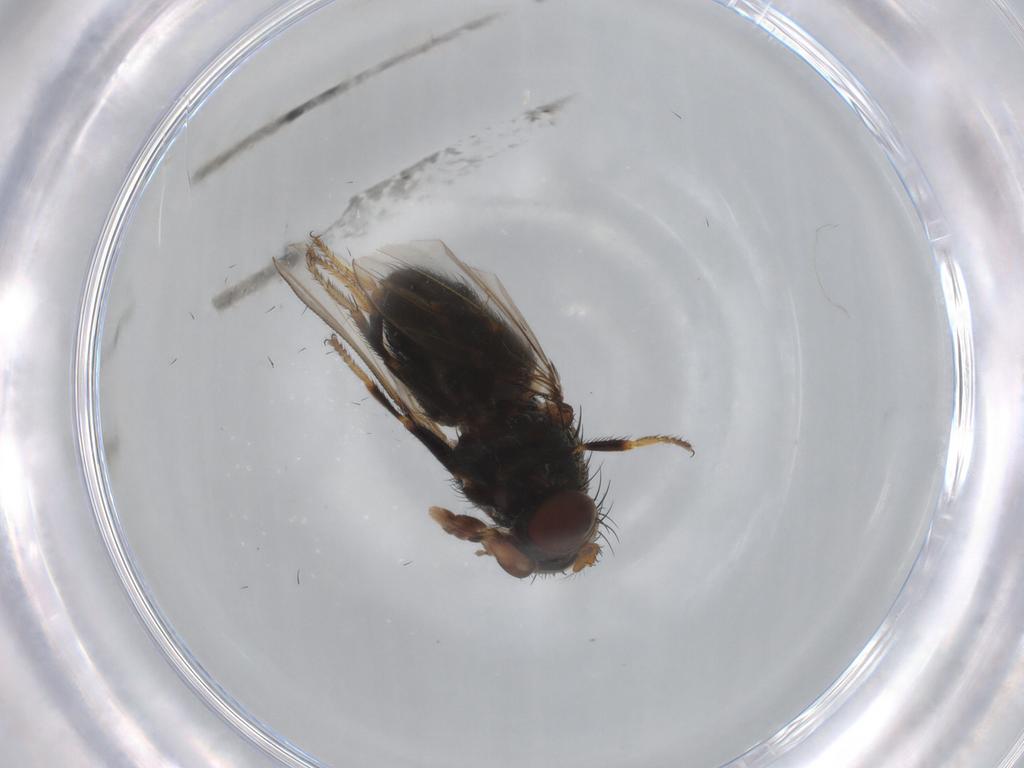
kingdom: Animalia
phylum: Arthropoda
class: Insecta
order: Diptera
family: Ephydridae
